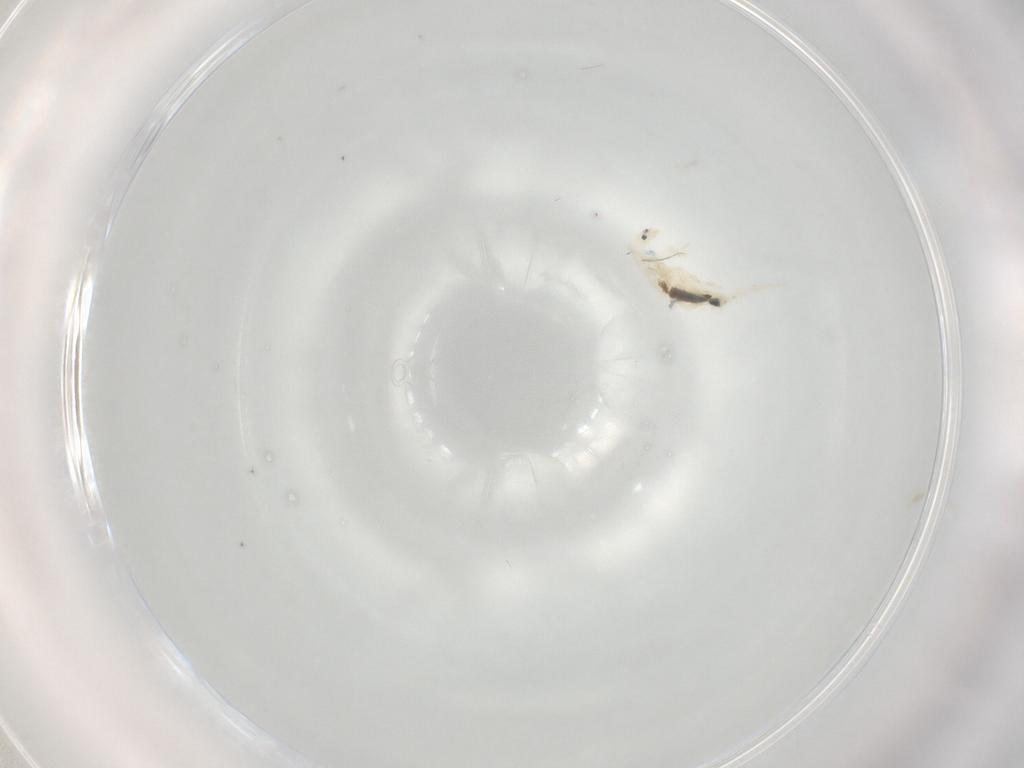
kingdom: Animalia
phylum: Arthropoda
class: Collembola
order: Entomobryomorpha
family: Entomobryidae
